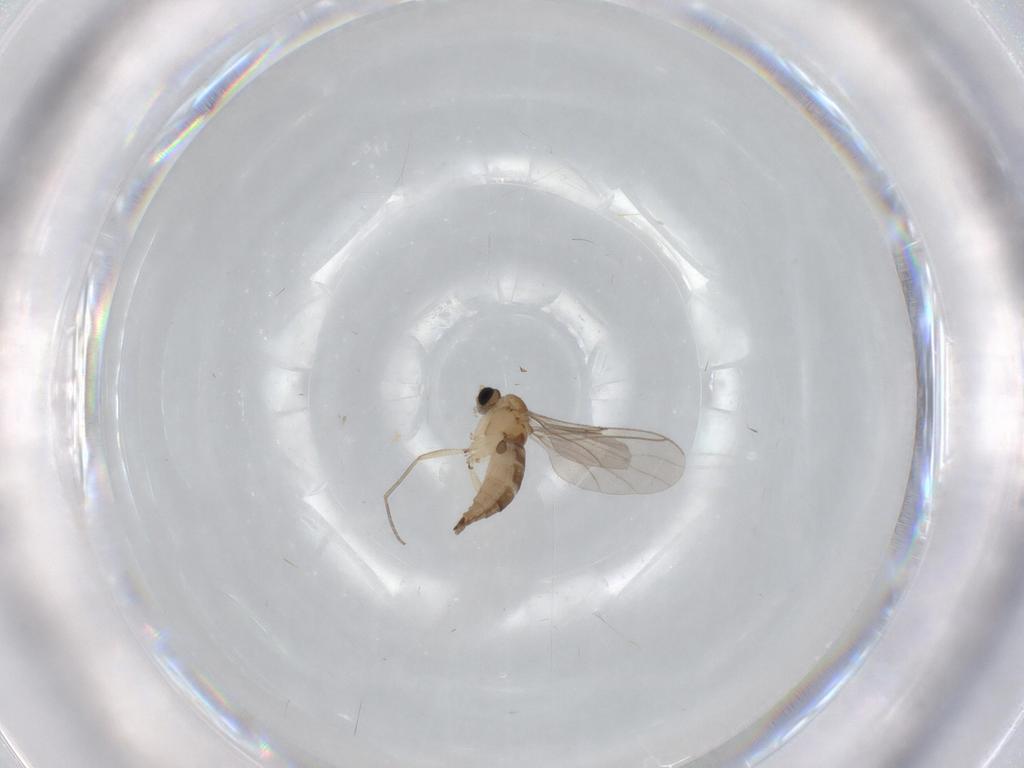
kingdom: Animalia
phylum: Arthropoda
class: Insecta
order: Diptera
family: Sciaridae
